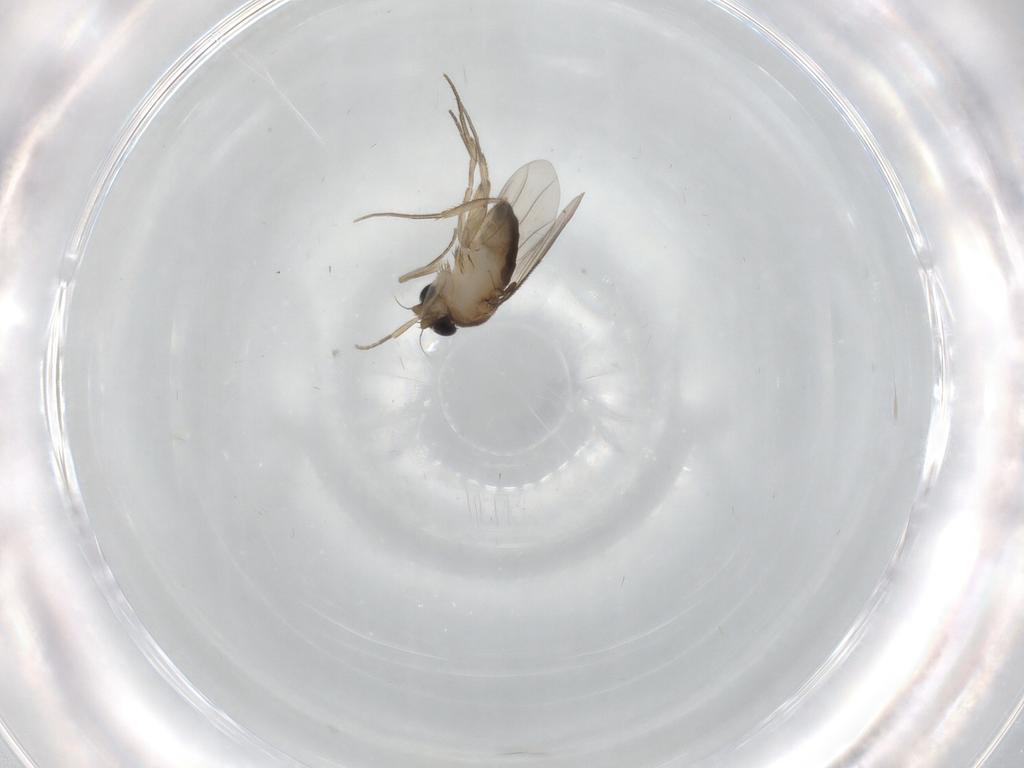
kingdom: Animalia
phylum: Arthropoda
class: Insecta
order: Diptera
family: Phoridae
